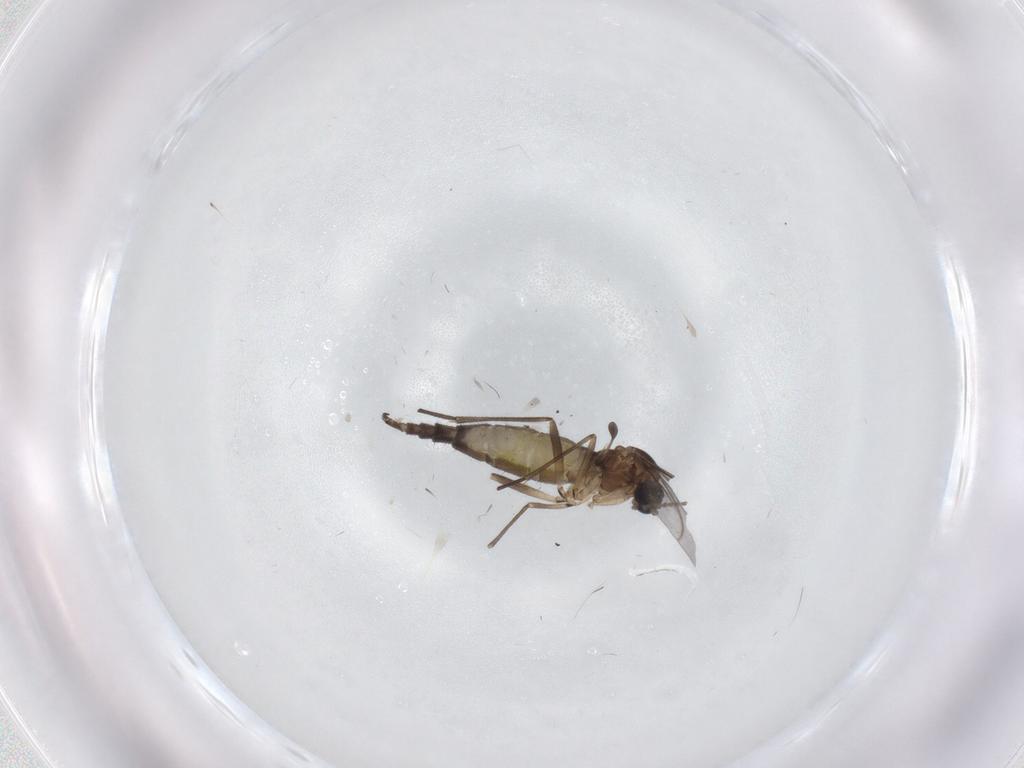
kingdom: Animalia
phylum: Arthropoda
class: Insecta
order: Diptera
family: Sciaridae
